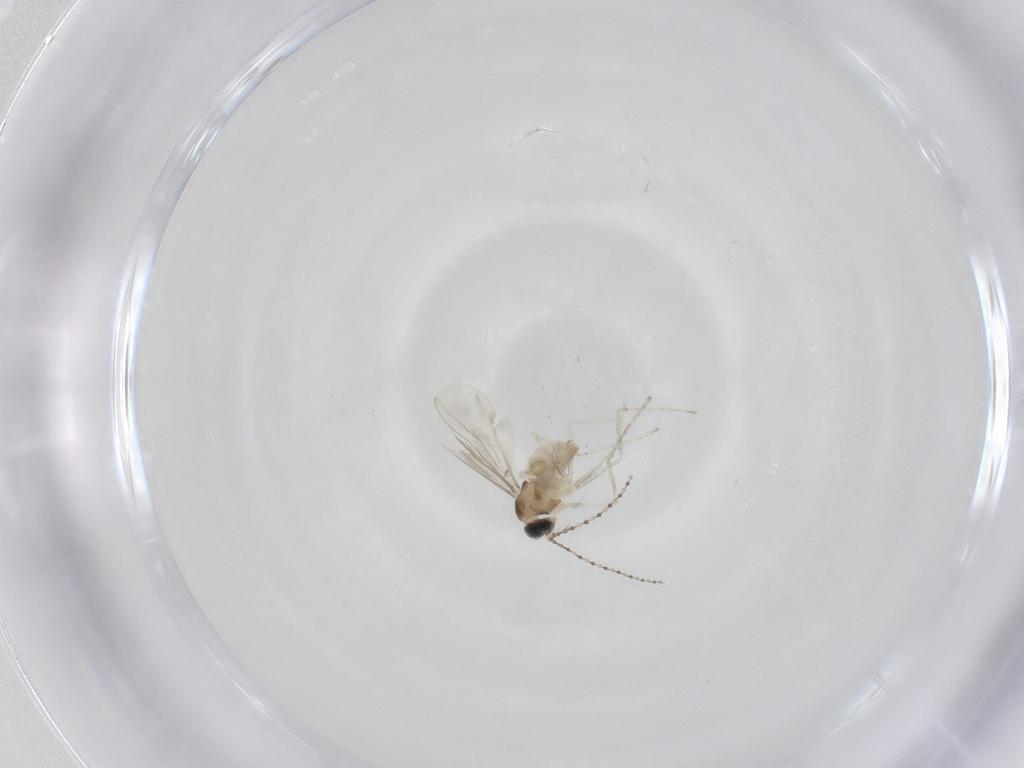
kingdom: Animalia
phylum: Arthropoda
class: Insecta
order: Diptera
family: Cecidomyiidae
